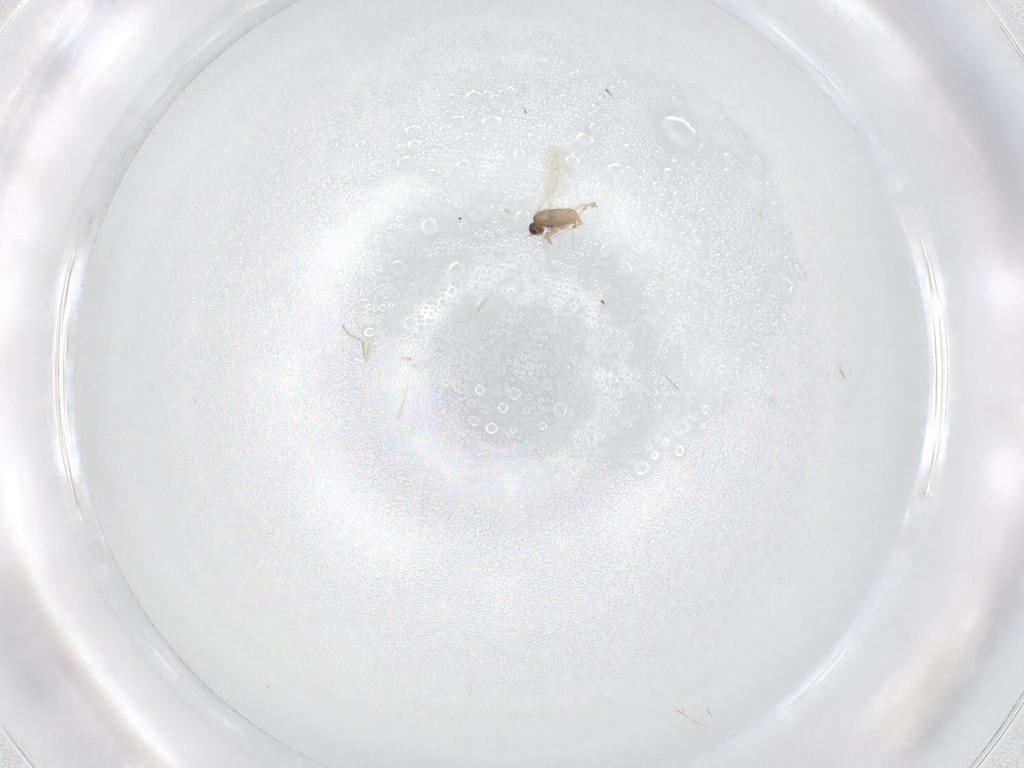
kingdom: Animalia
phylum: Arthropoda
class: Insecta
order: Diptera
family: Cecidomyiidae
